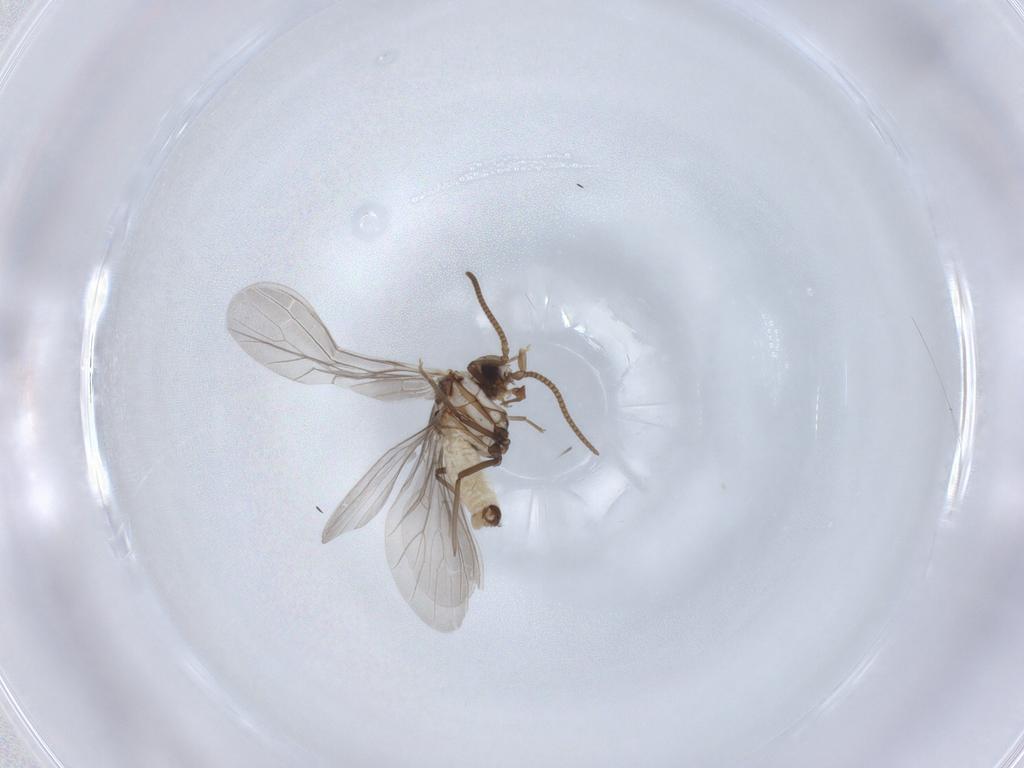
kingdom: Animalia
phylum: Arthropoda
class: Insecta
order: Neuroptera
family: Coniopterygidae
